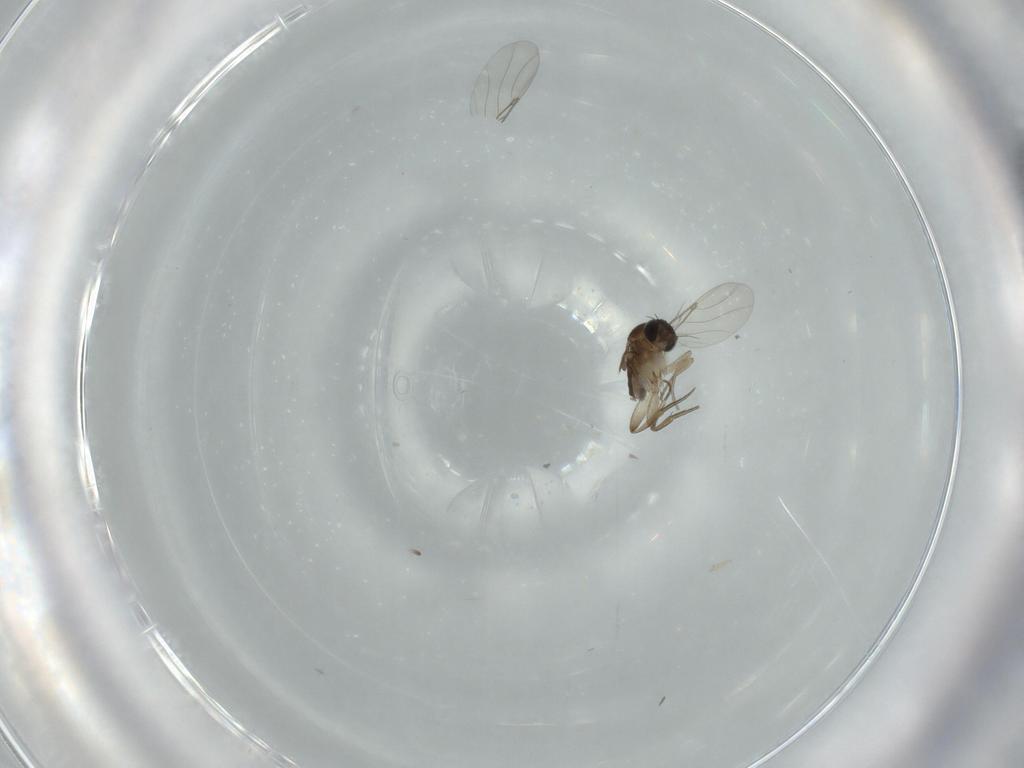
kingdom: Animalia
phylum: Arthropoda
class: Insecta
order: Diptera
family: Phoridae
